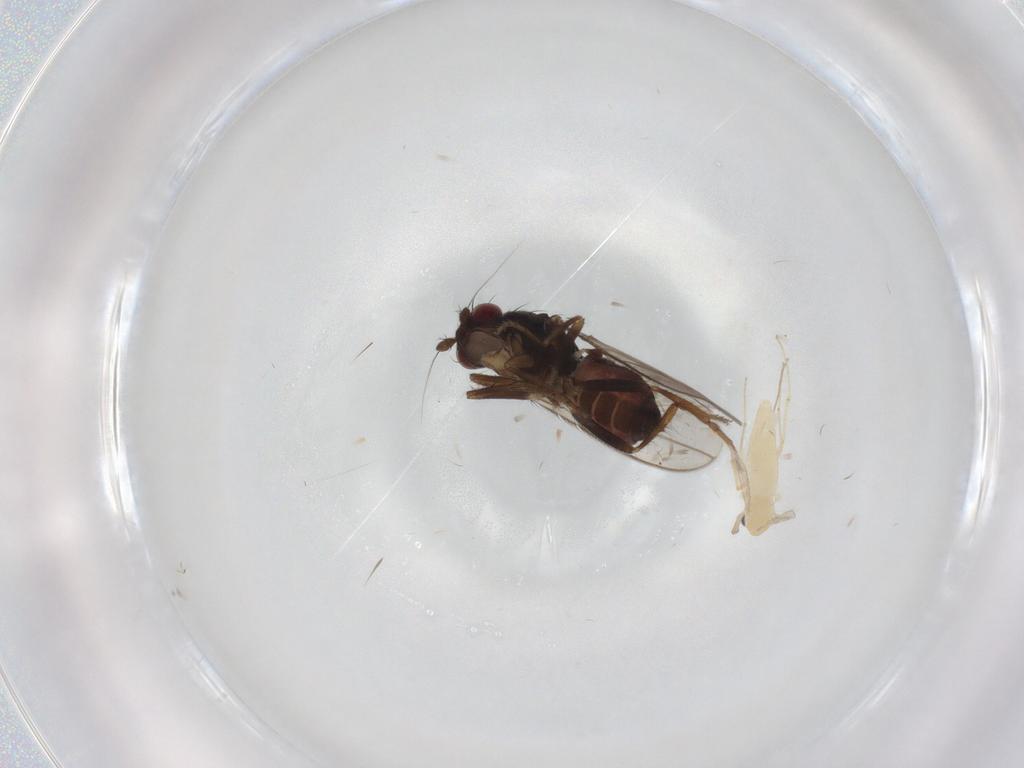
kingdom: Animalia
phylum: Arthropoda
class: Insecta
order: Diptera
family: Sphaeroceridae
